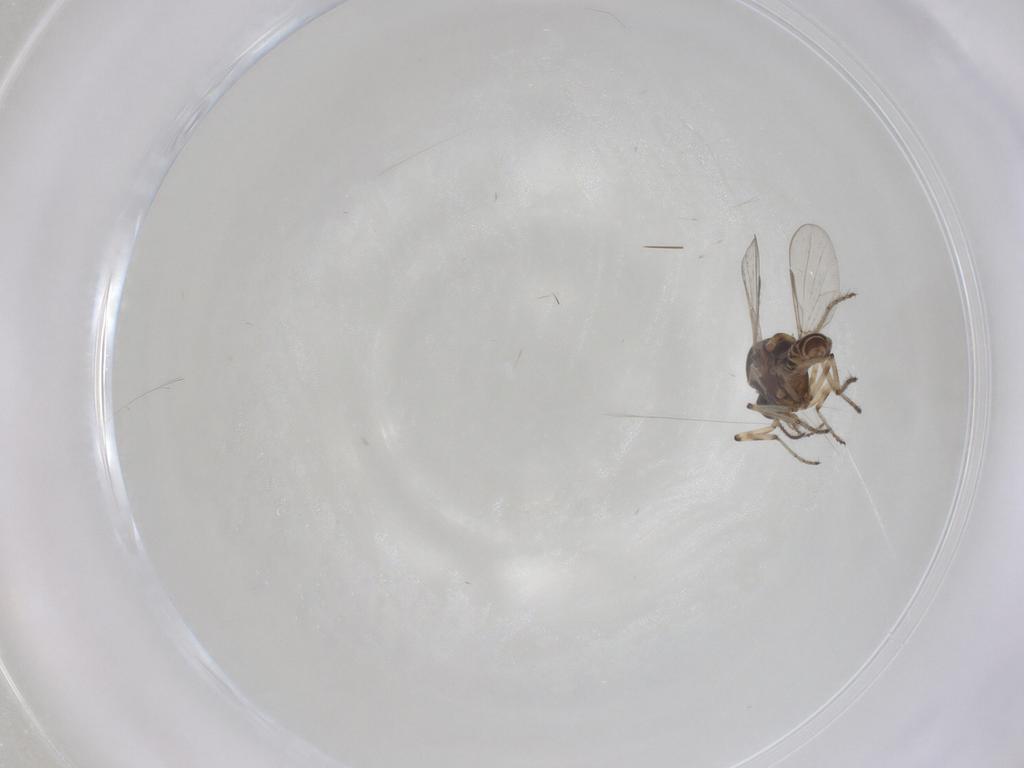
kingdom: Animalia
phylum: Arthropoda
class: Insecta
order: Diptera
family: Ceratopogonidae
